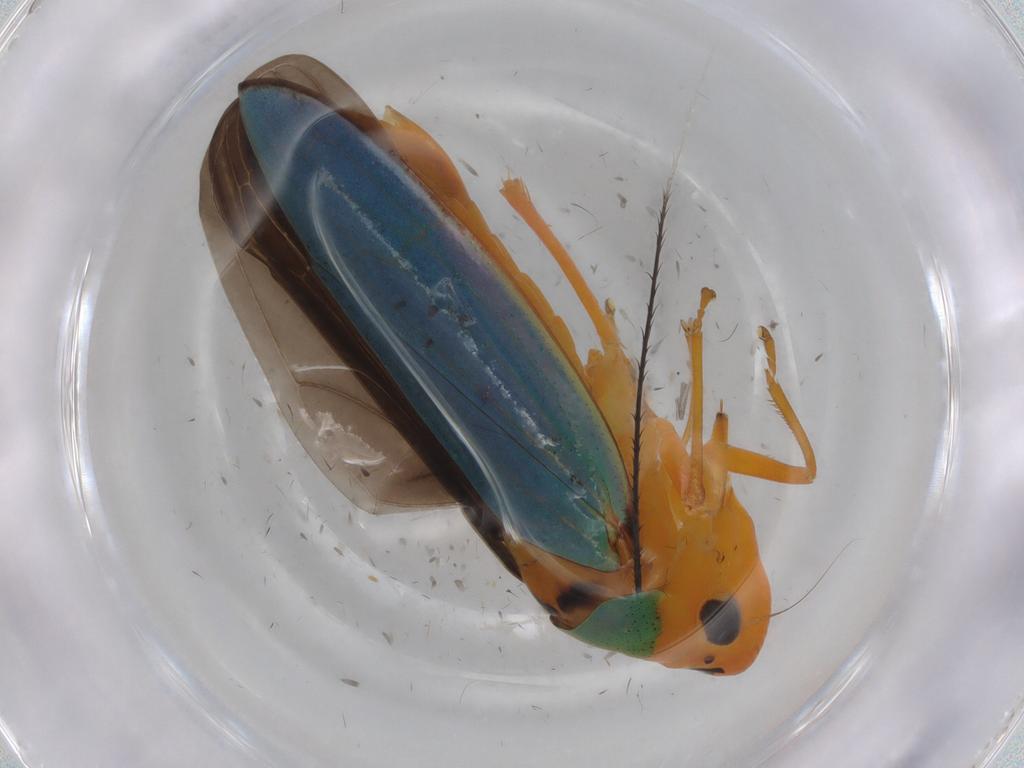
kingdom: Animalia
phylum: Arthropoda
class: Insecta
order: Hemiptera
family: Cicadellidae
